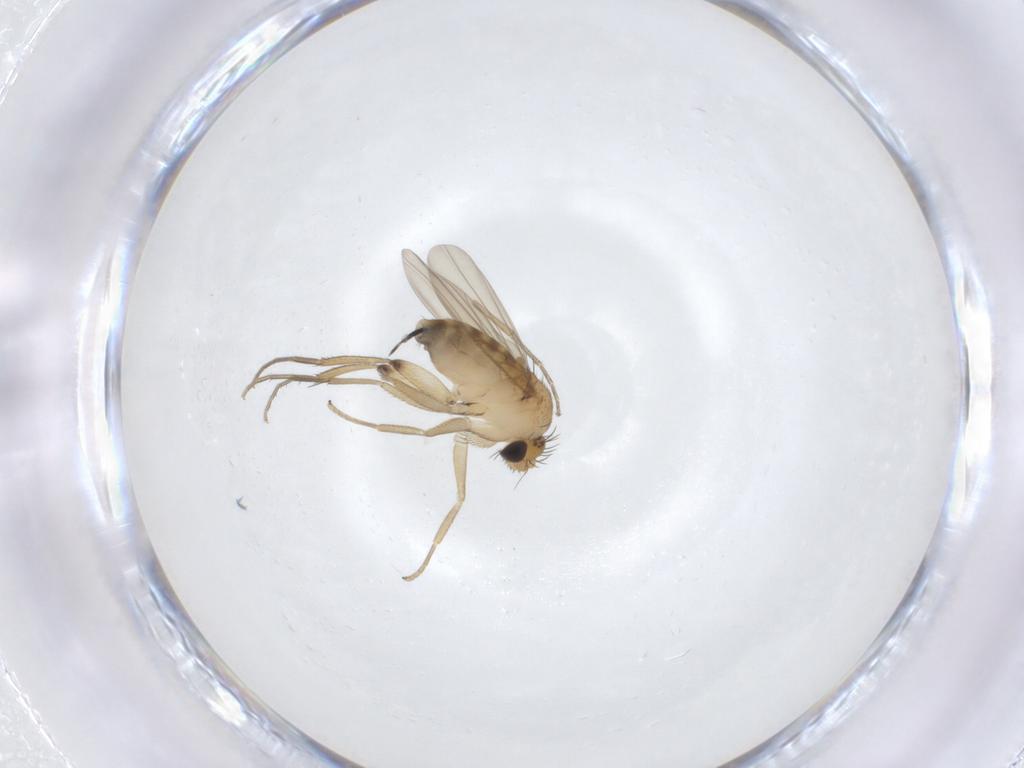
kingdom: Animalia
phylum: Arthropoda
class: Insecta
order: Diptera
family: Phoridae
